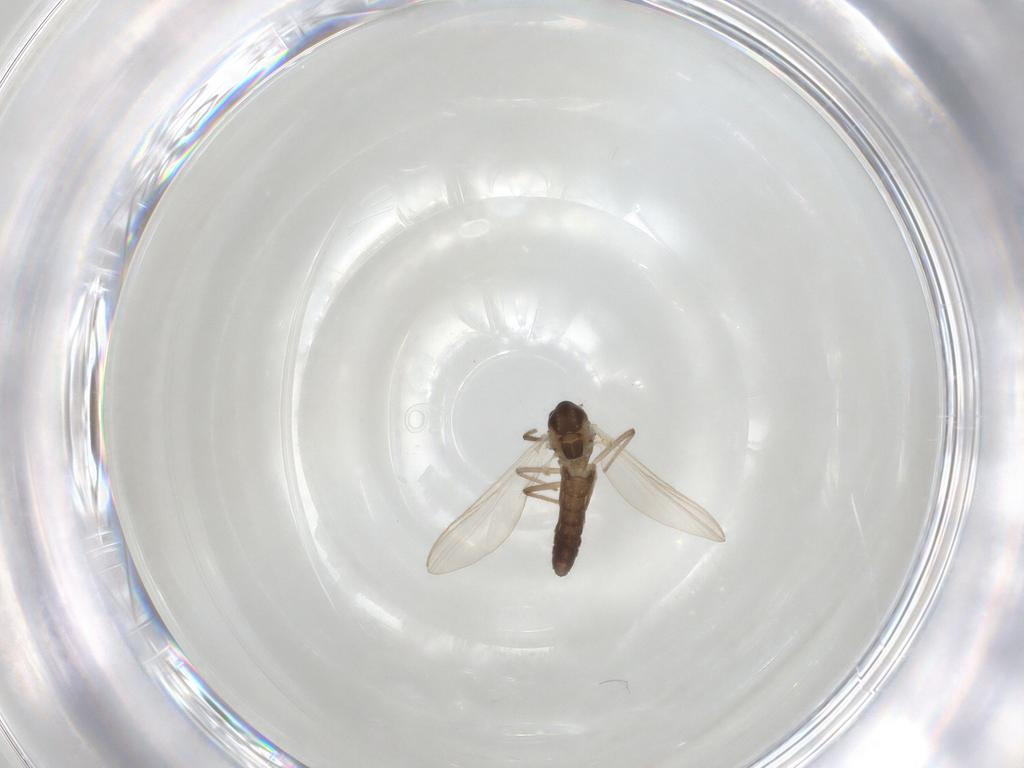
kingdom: Animalia
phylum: Arthropoda
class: Insecta
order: Diptera
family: Chironomidae
